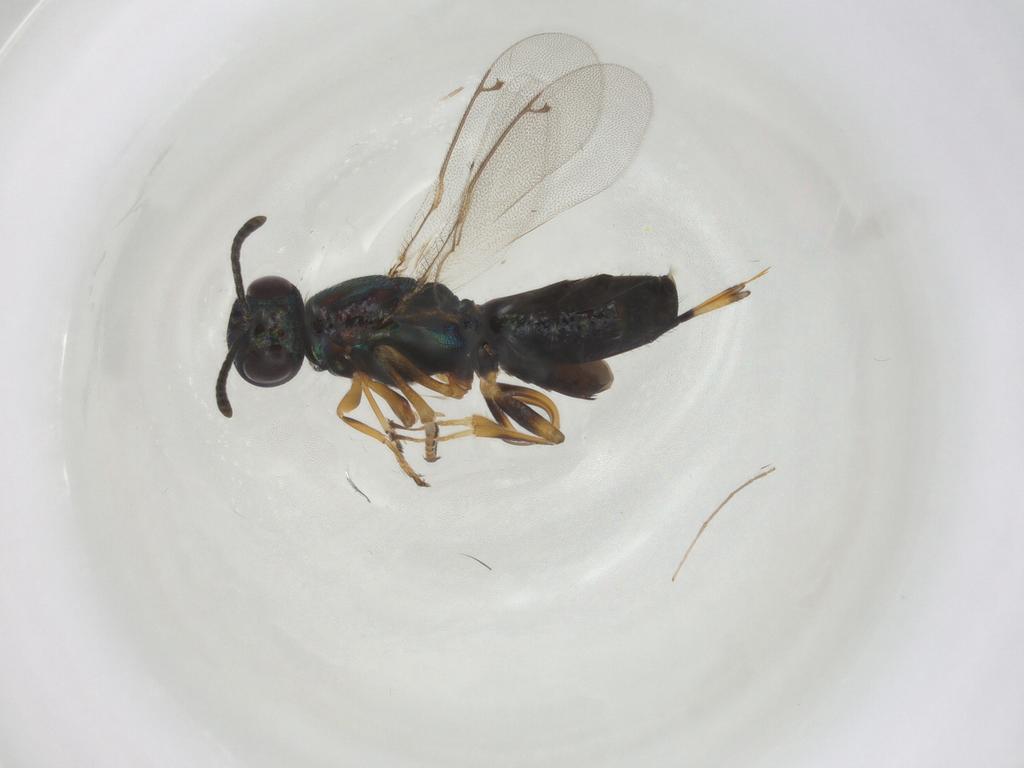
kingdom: Animalia
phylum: Arthropoda
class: Insecta
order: Hymenoptera
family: Eupelmidae
